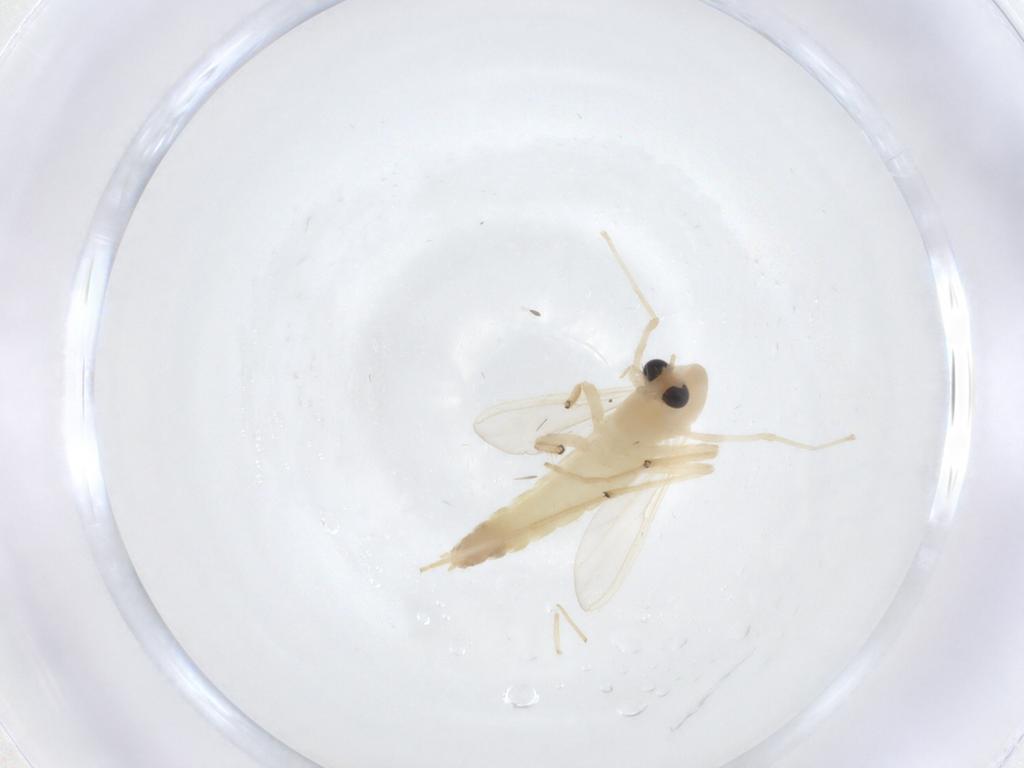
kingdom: Animalia
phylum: Arthropoda
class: Insecta
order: Diptera
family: Chironomidae
